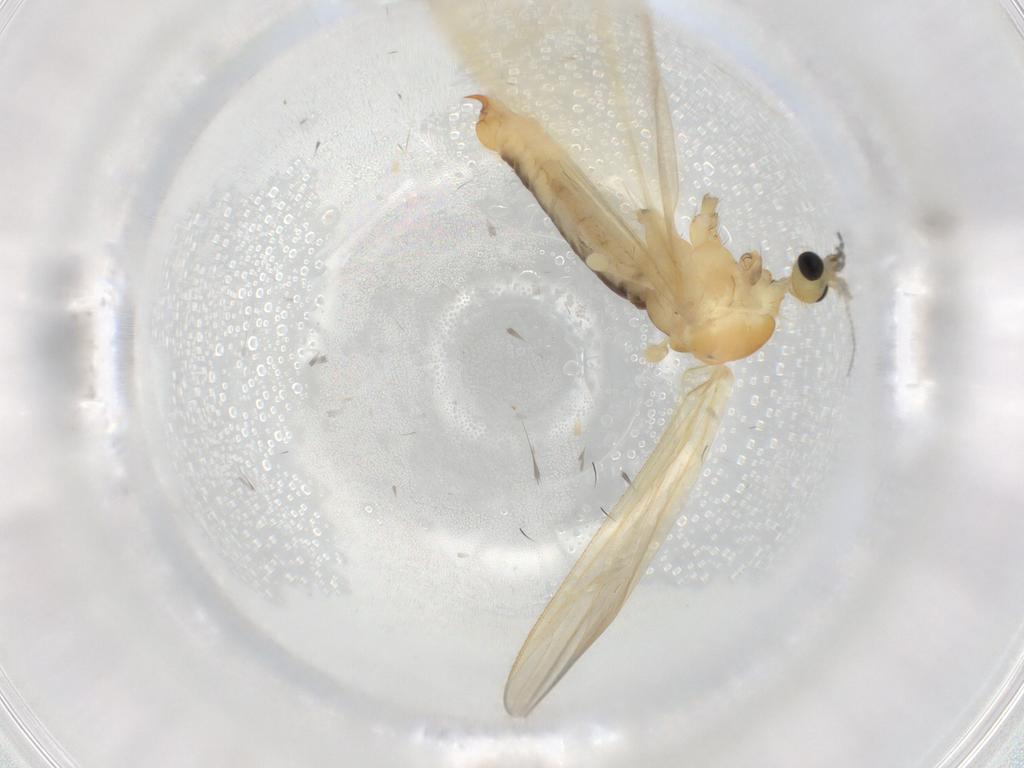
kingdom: Animalia
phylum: Arthropoda
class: Insecta
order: Diptera
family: Limoniidae
